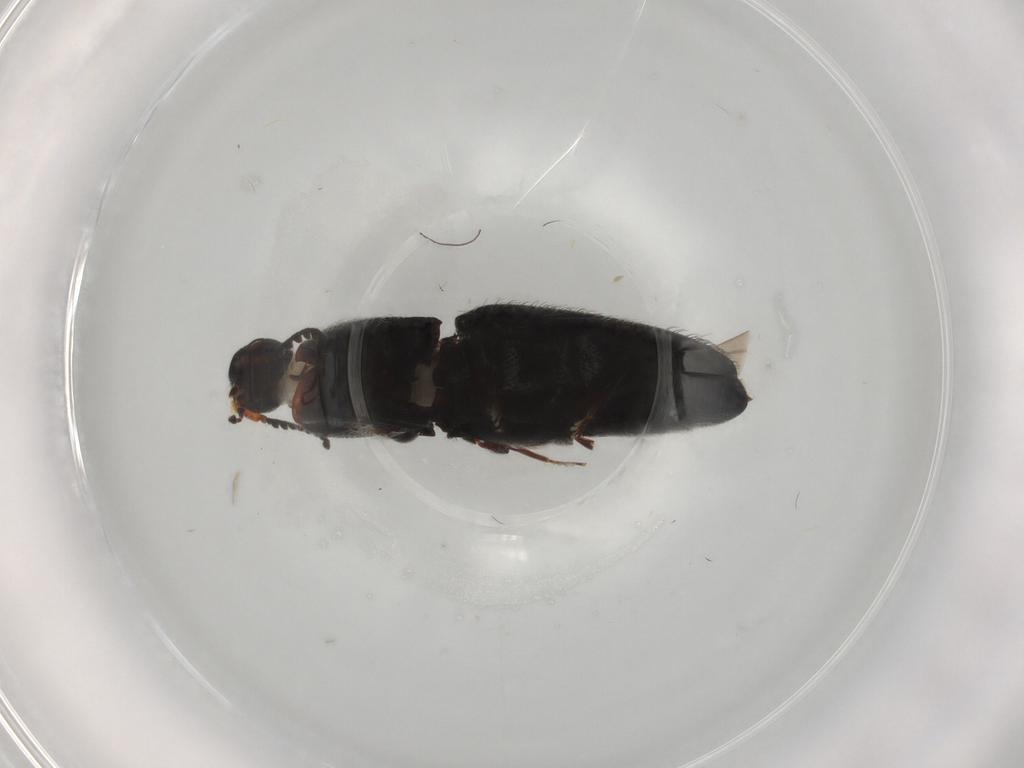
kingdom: Animalia
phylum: Arthropoda
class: Insecta
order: Coleoptera
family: Elateridae
